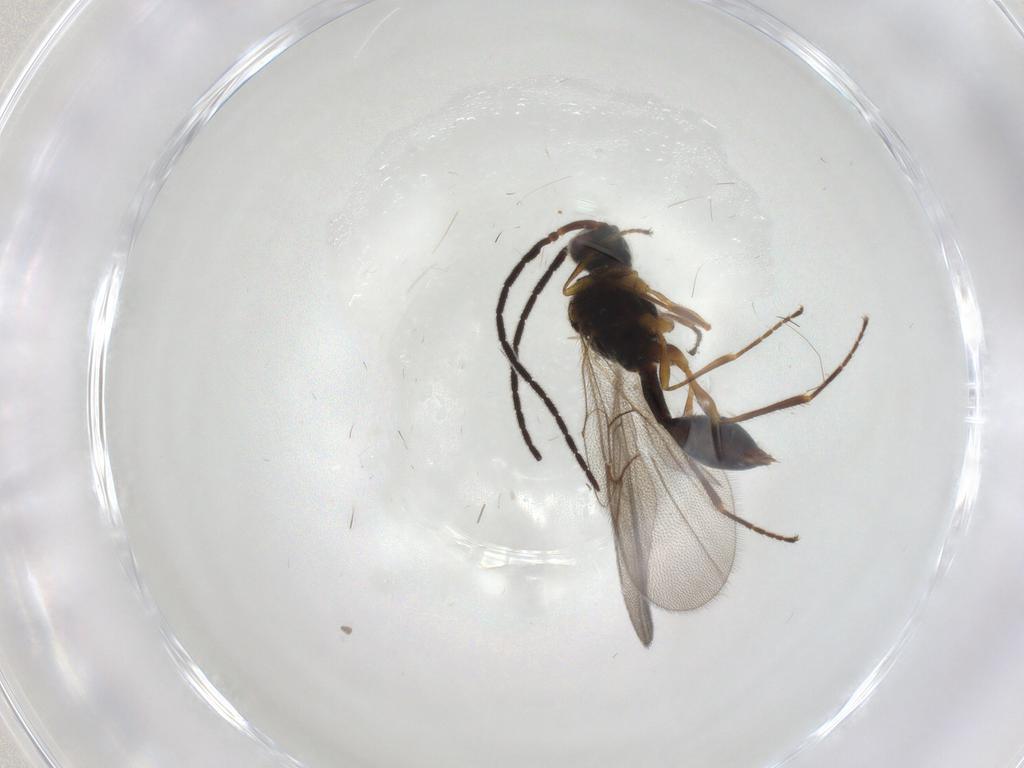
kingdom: Animalia
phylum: Arthropoda
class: Insecta
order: Hymenoptera
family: Diapriidae
